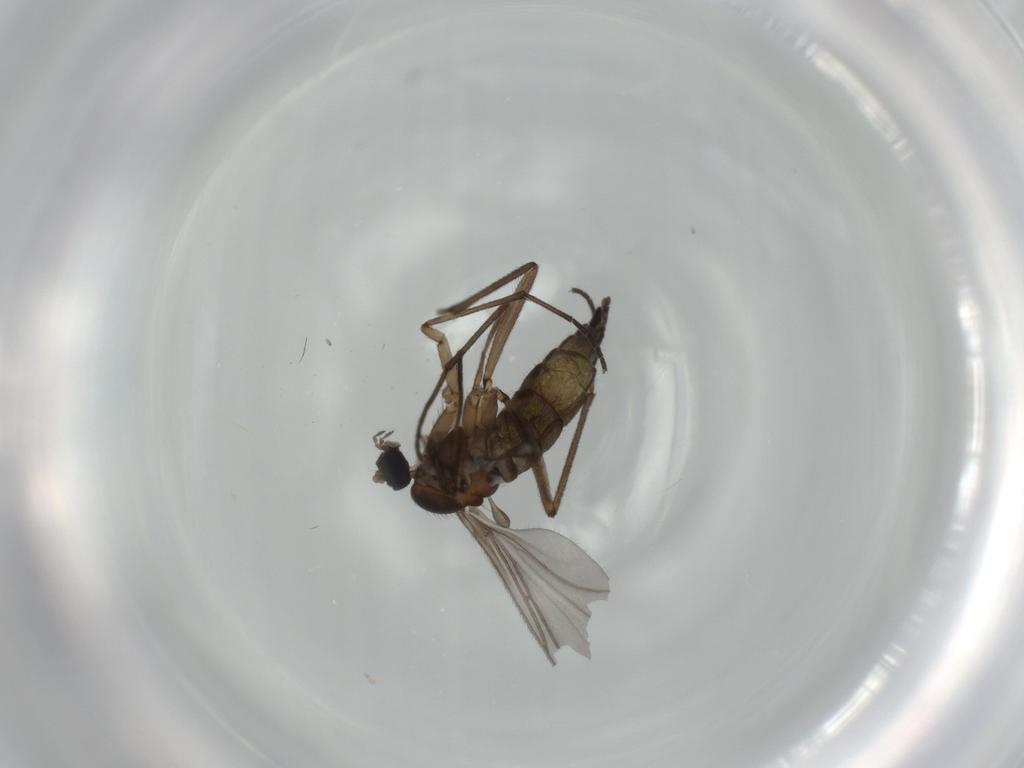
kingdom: Animalia
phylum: Arthropoda
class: Insecta
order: Diptera
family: Sciaridae
